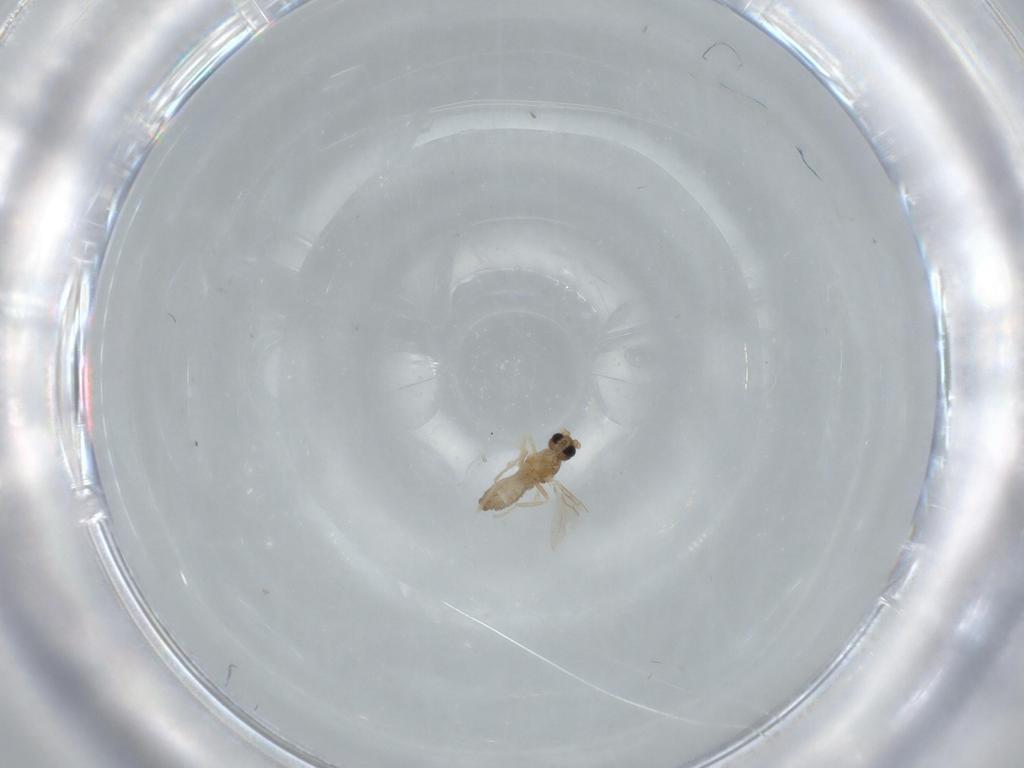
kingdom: Animalia
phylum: Arthropoda
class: Insecta
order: Diptera
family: Cecidomyiidae
